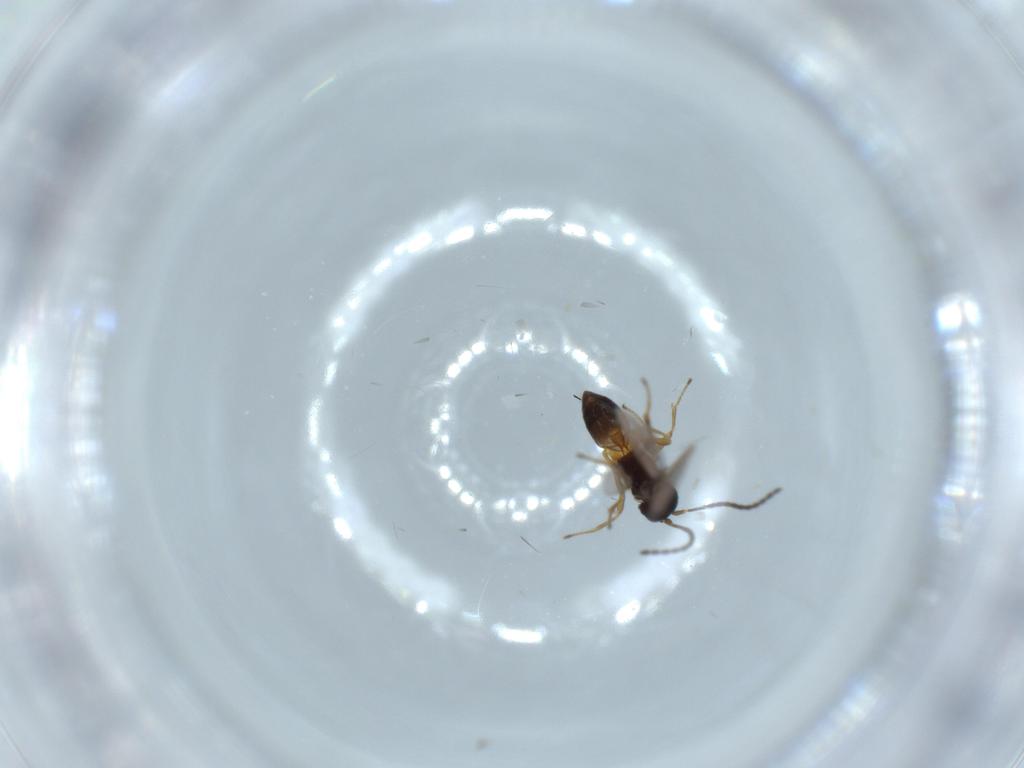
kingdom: Animalia
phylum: Arthropoda
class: Insecta
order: Hymenoptera
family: Braconidae
